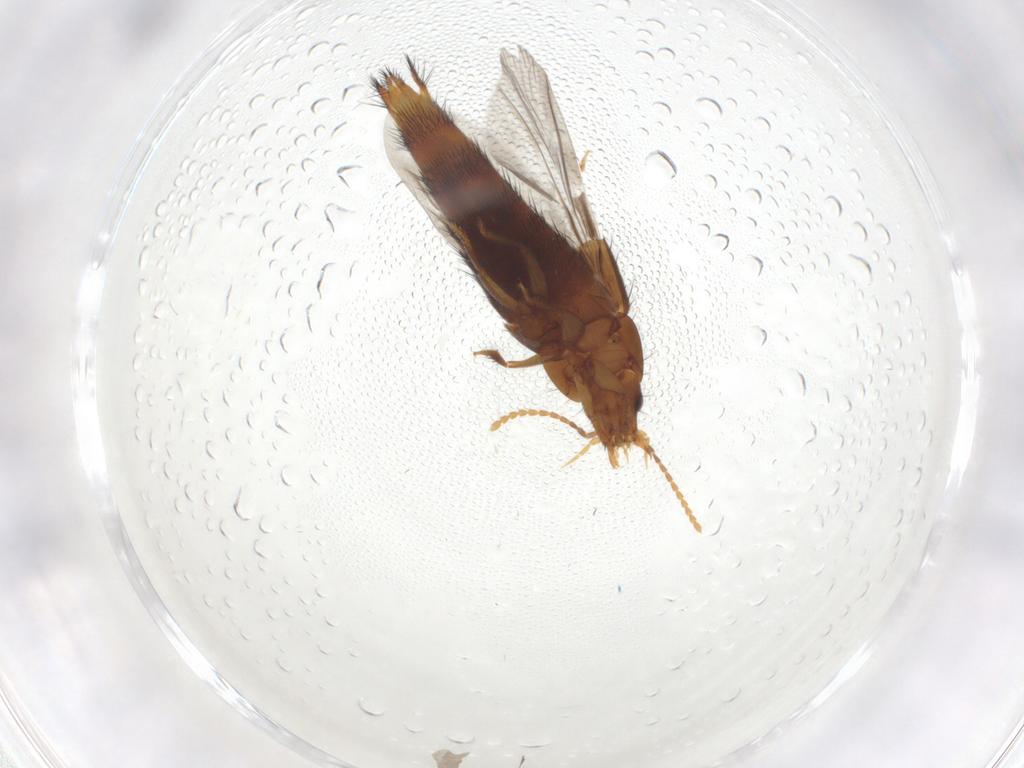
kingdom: Animalia
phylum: Arthropoda
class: Insecta
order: Coleoptera
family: Staphylinidae
